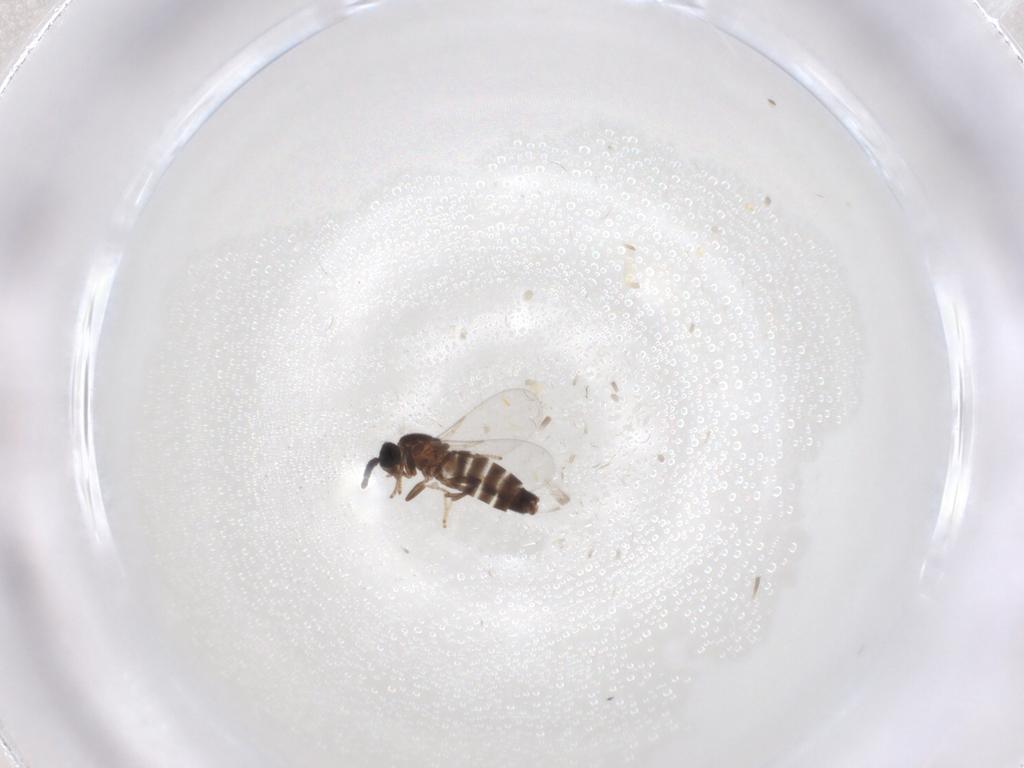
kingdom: Animalia
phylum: Arthropoda
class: Insecta
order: Diptera
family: Scatopsidae
